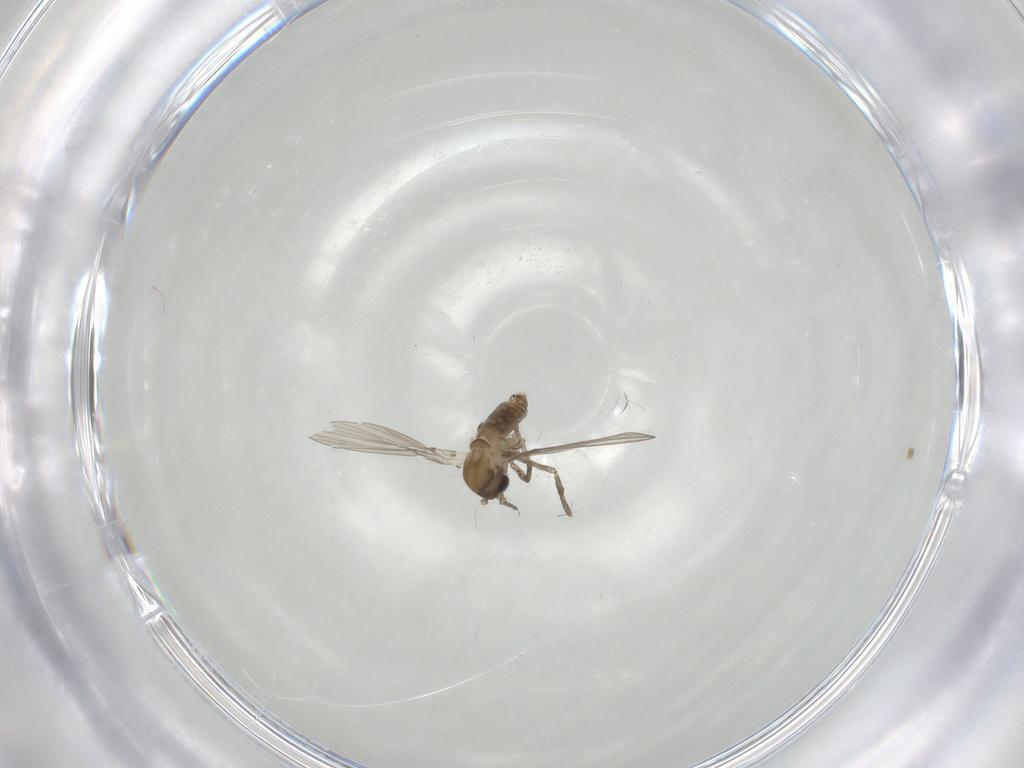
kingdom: Animalia
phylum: Arthropoda
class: Insecta
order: Diptera
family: Psychodidae
